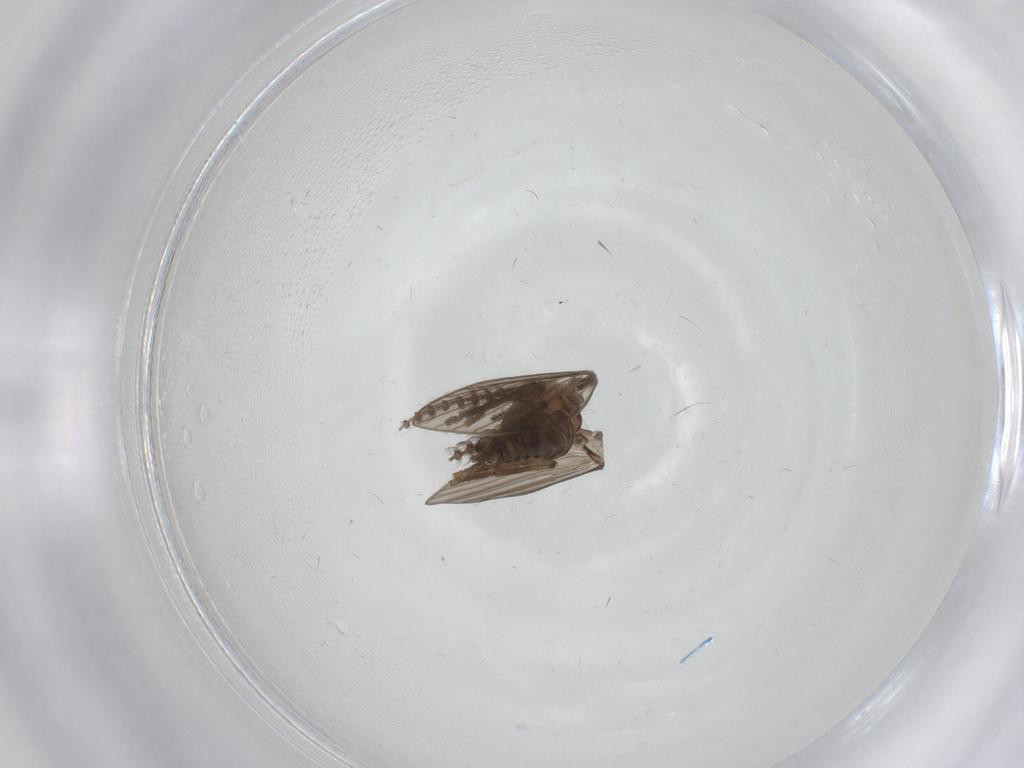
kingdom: Animalia
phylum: Arthropoda
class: Insecta
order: Diptera
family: Psychodidae
